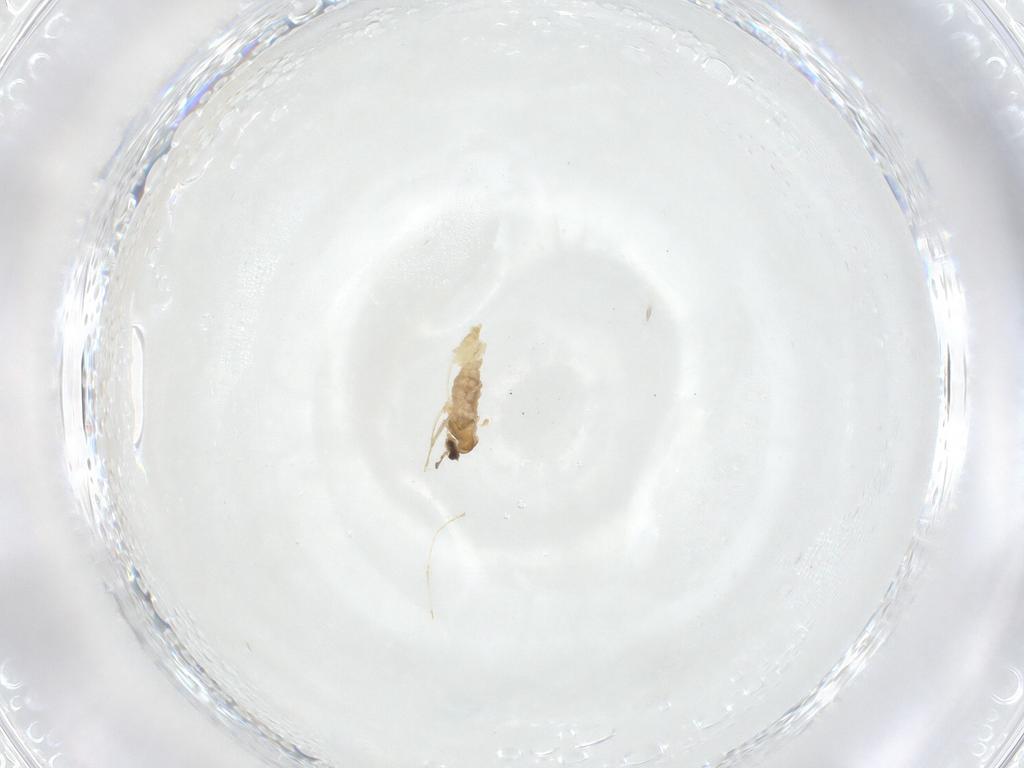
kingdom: Animalia
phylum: Arthropoda
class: Insecta
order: Diptera
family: Cecidomyiidae
